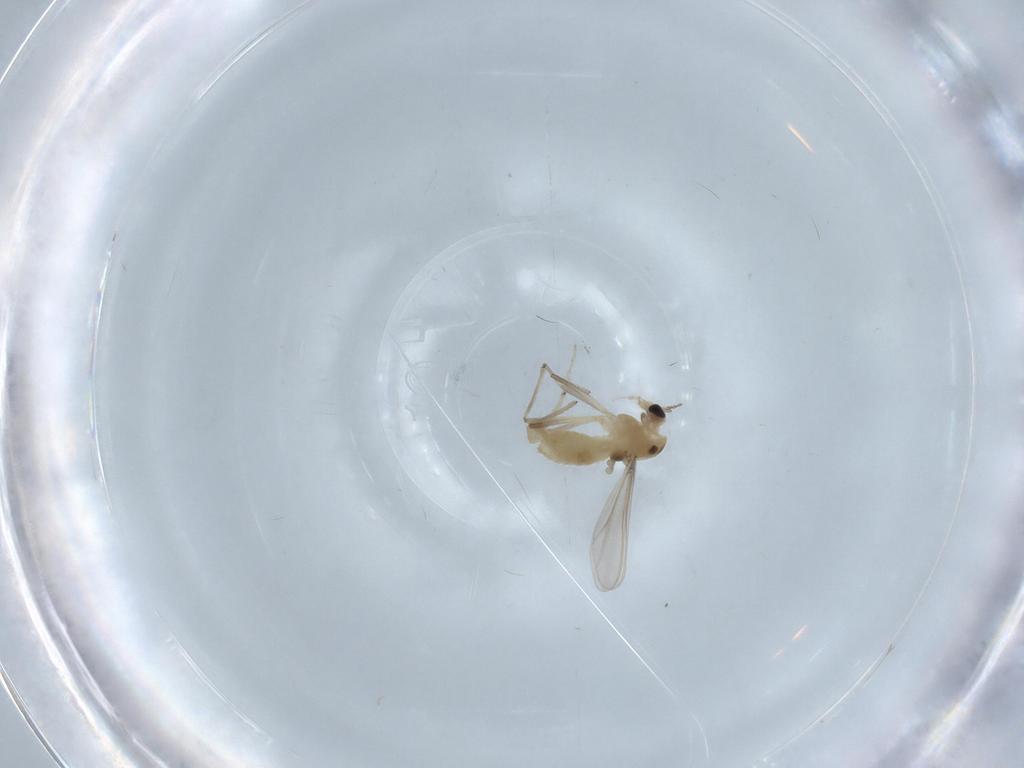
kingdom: Animalia
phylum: Arthropoda
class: Insecta
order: Diptera
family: Chironomidae
